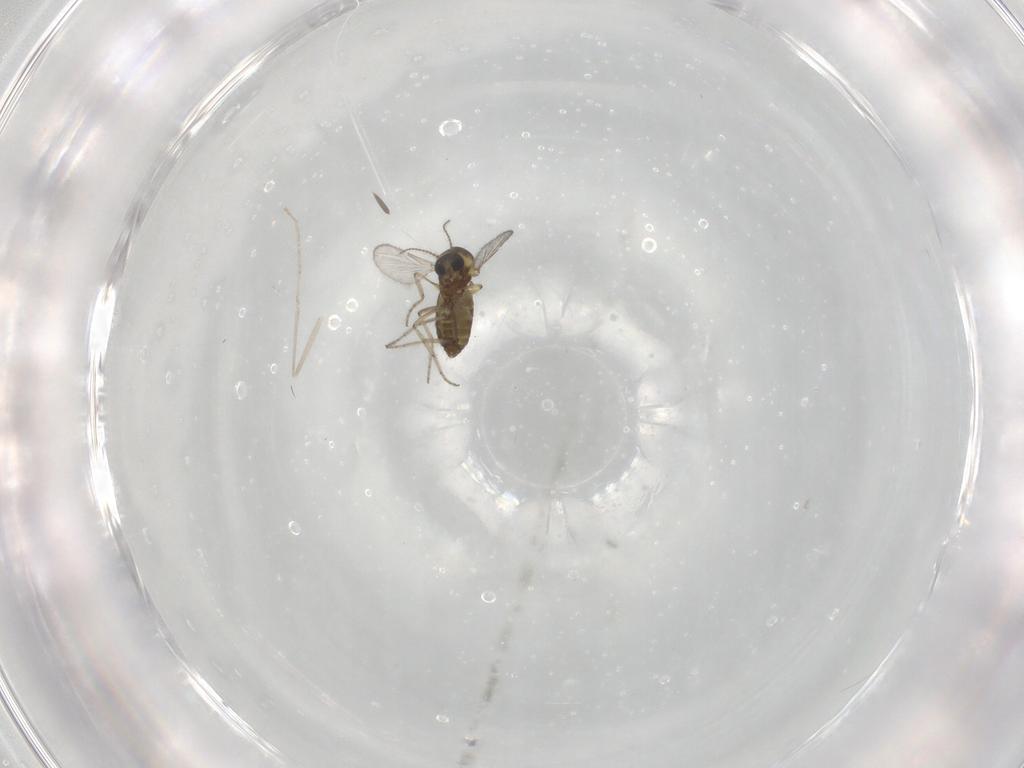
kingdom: Animalia
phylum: Arthropoda
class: Insecta
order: Diptera
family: Ceratopogonidae
